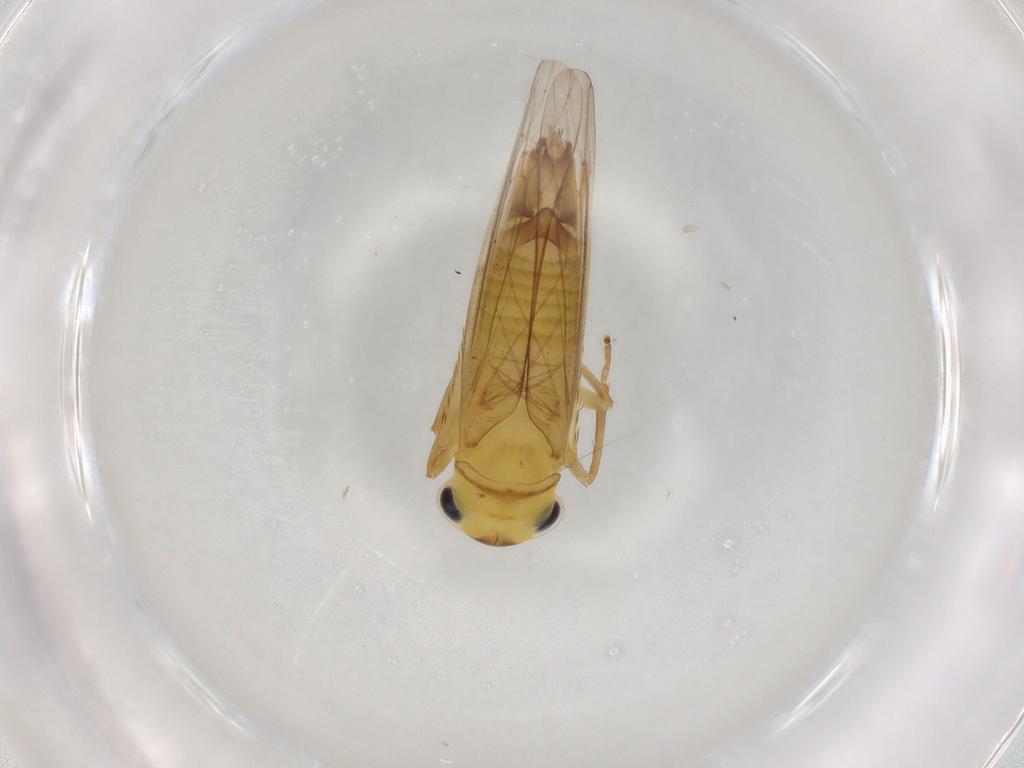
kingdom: Animalia
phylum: Arthropoda
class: Insecta
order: Hemiptera
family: Cicadellidae
